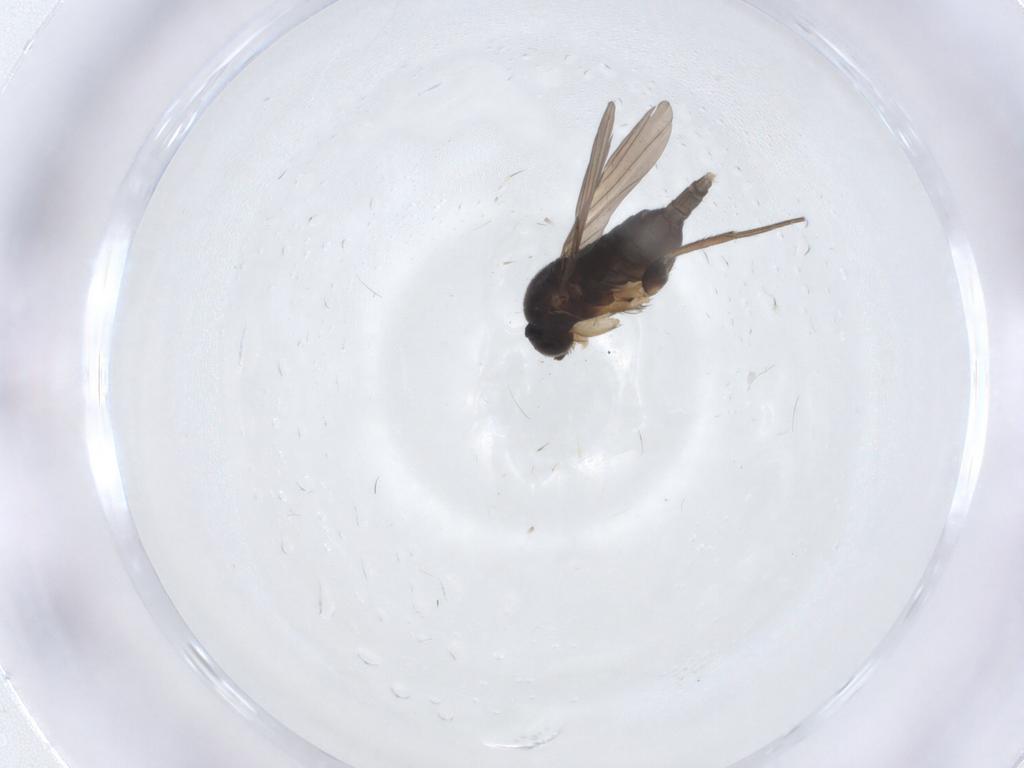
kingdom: Animalia
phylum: Arthropoda
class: Insecta
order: Diptera
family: Phoridae
